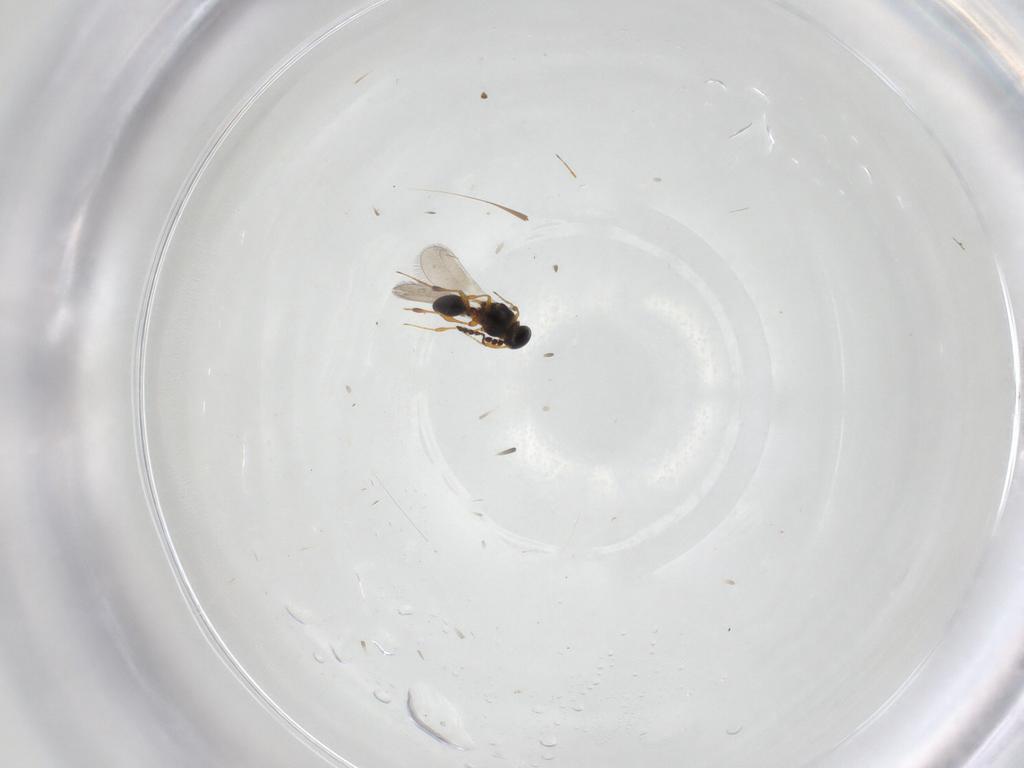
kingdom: Animalia
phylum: Arthropoda
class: Insecta
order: Hymenoptera
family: Platygastridae
